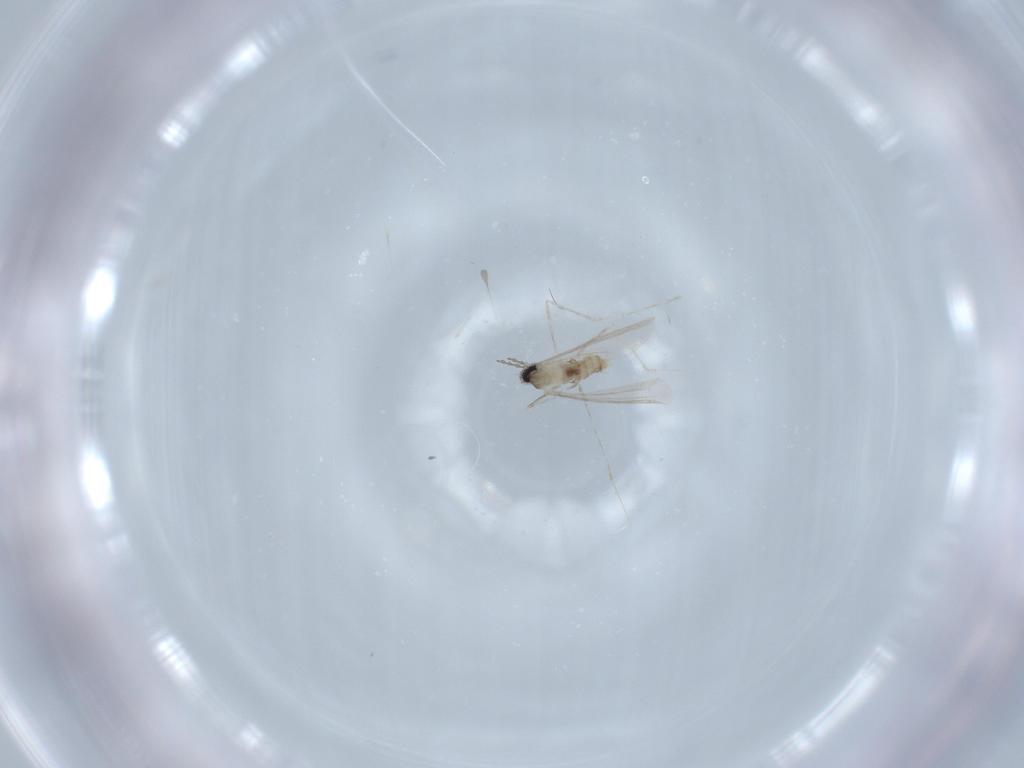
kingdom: Animalia
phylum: Arthropoda
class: Insecta
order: Diptera
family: Cecidomyiidae
